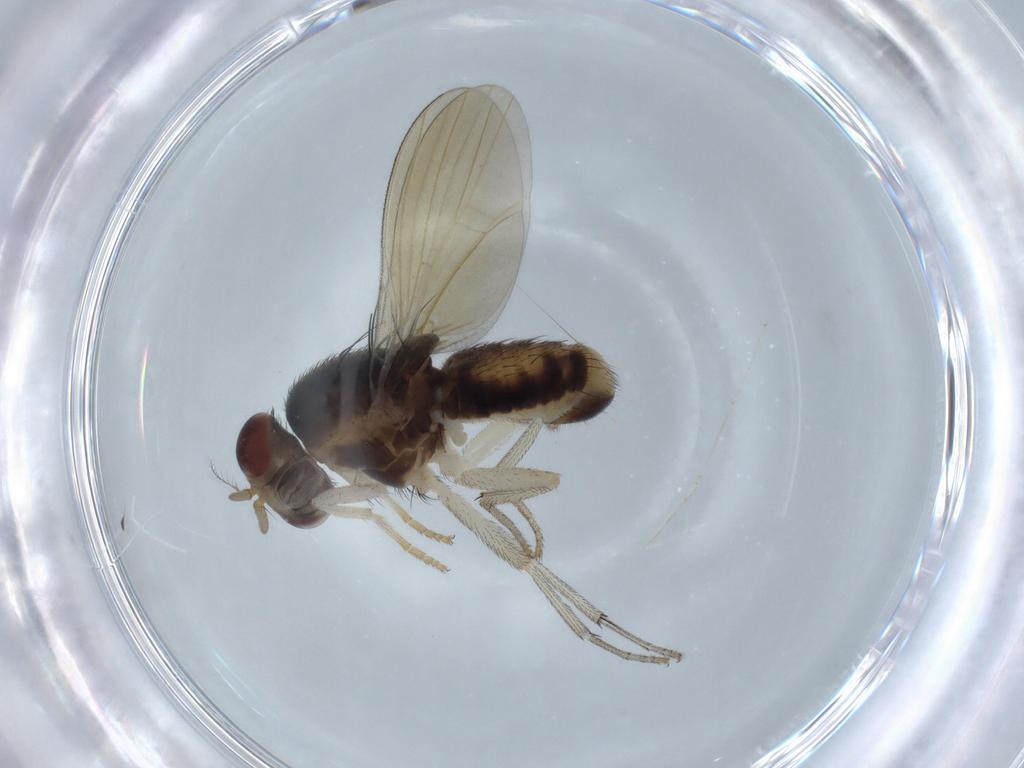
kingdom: Animalia
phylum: Arthropoda
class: Insecta
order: Diptera
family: Cecidomyiidae
